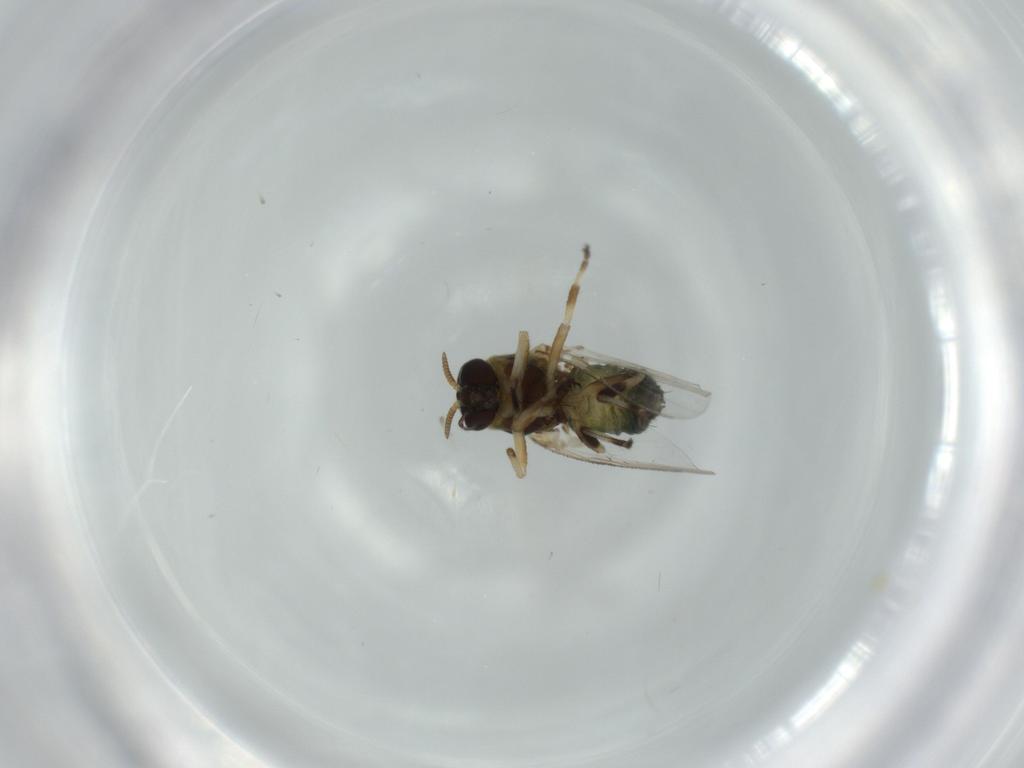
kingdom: Animalia
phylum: Arthropoda
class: Insecta
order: Diptera
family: Simuliidae
